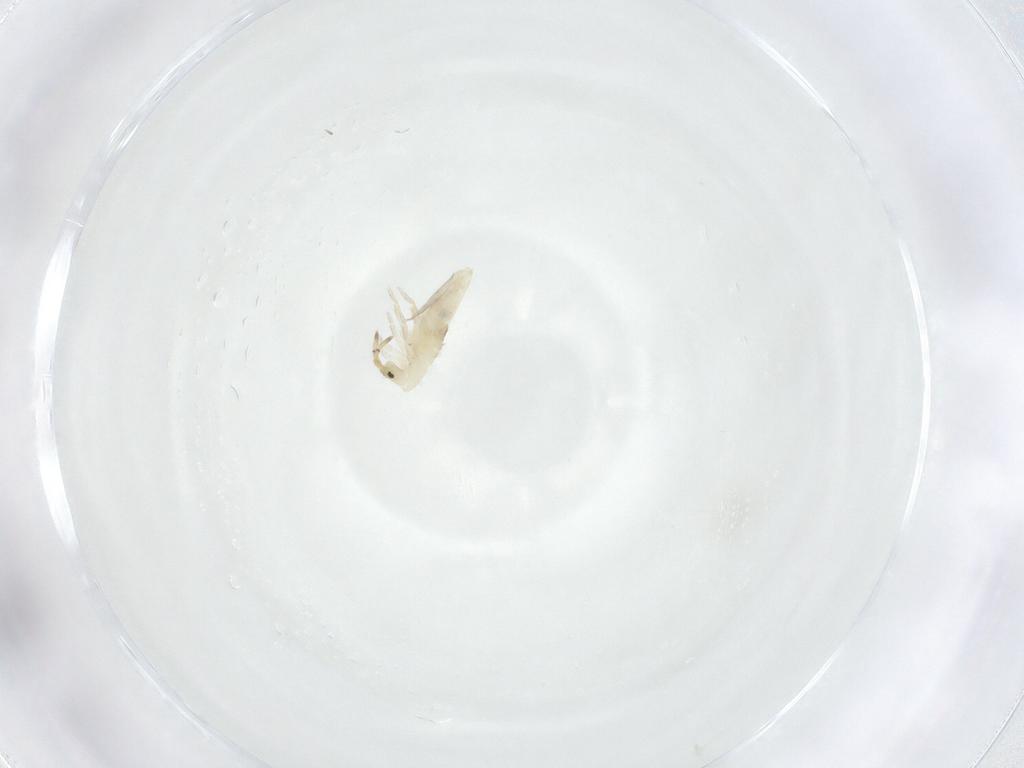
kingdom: Animalia
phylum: Arthropoda
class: Collembola
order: Entomobryomorpha
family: Entomobryidae
